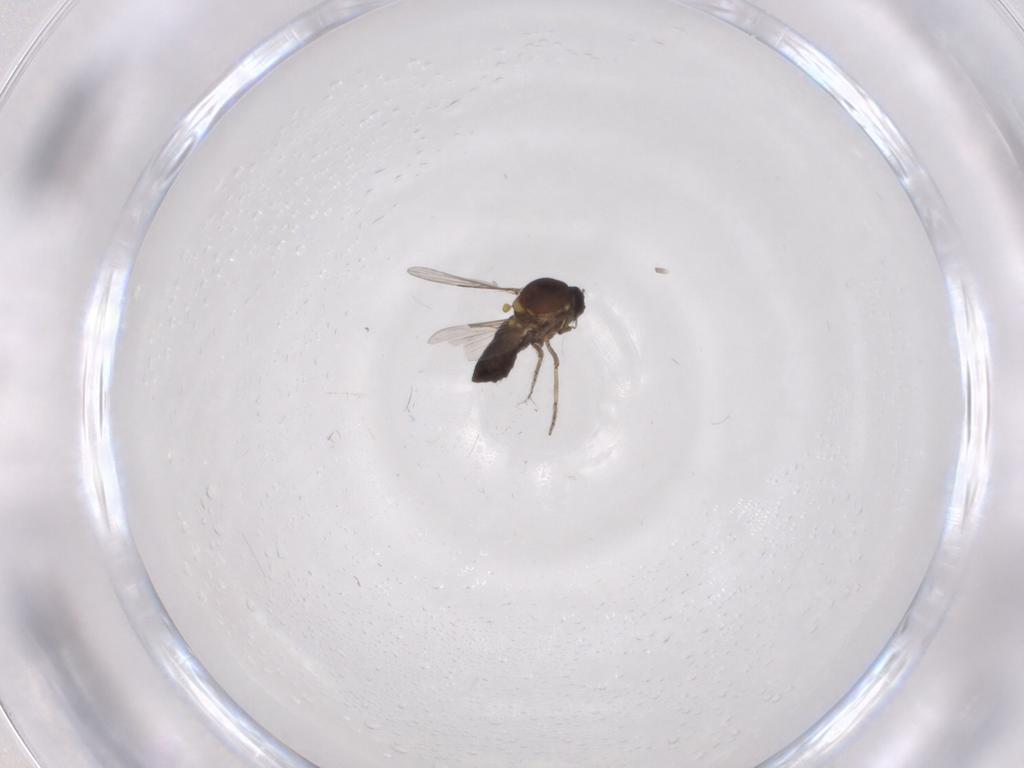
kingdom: Animalia
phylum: Arthropoda
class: Insecta
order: Diptera
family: Ceratopogonidae
